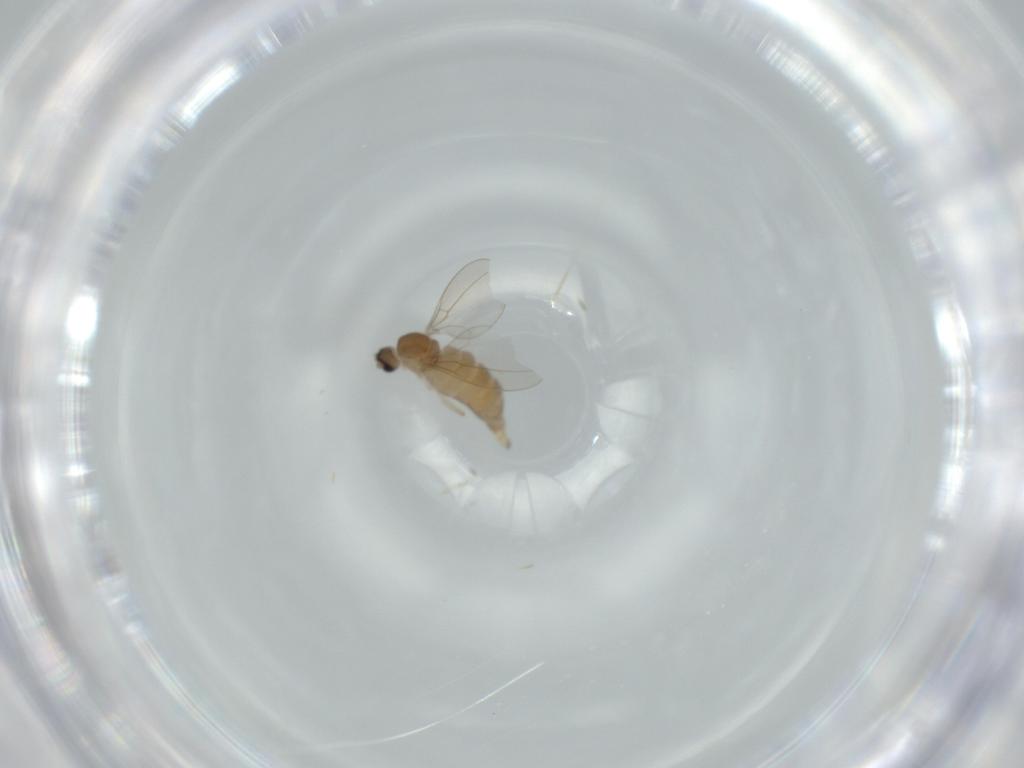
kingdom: Animalia
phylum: Arthropoda
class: Insecta
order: Diptera
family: Cecidomyiidae
